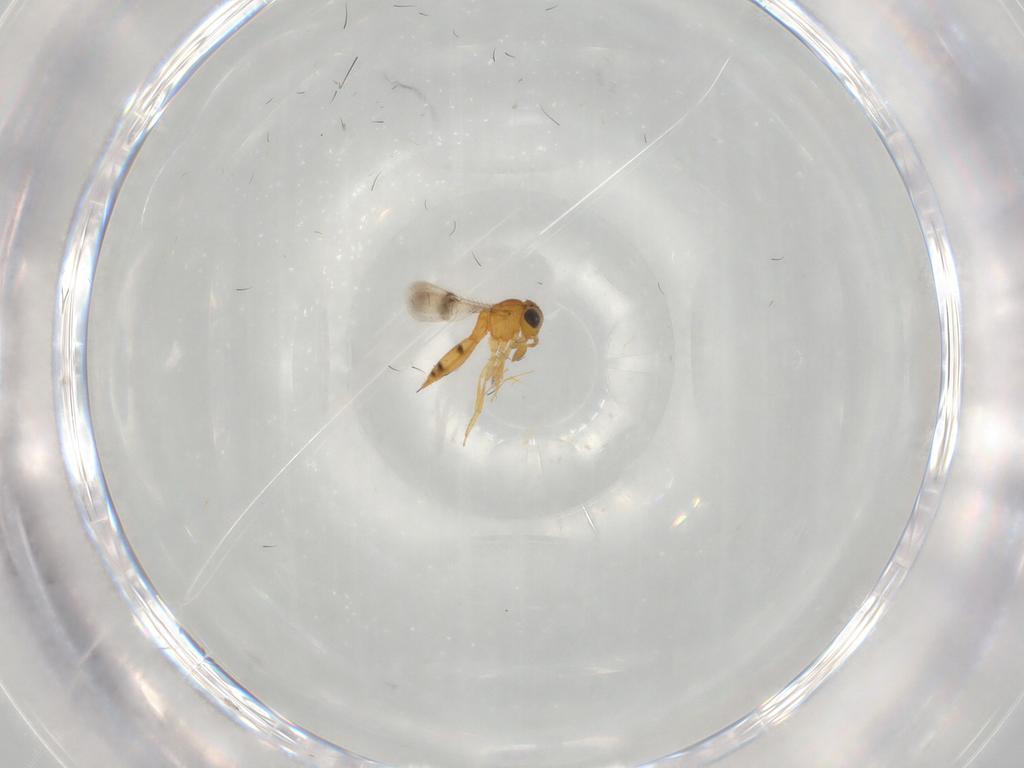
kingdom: Animalia
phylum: Arthropoda
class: Insecta
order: Hymenoptera
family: Scelionidae
